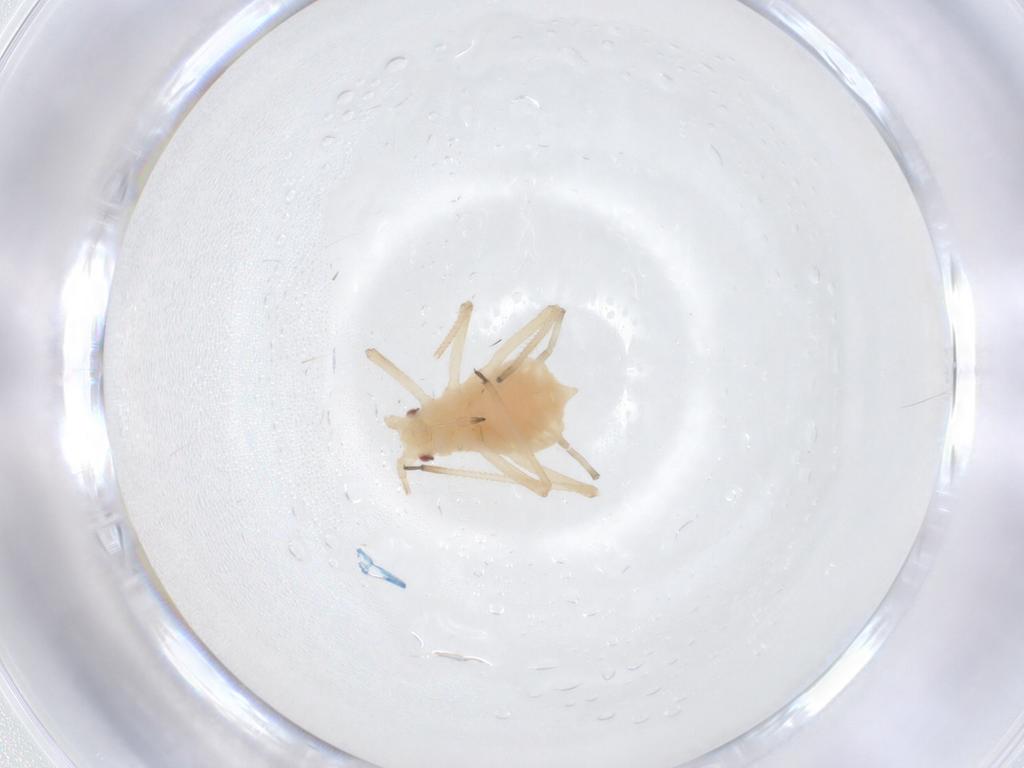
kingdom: Animalia
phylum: Arthropoda
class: Insecta
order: Hemiptera
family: Aphididae
